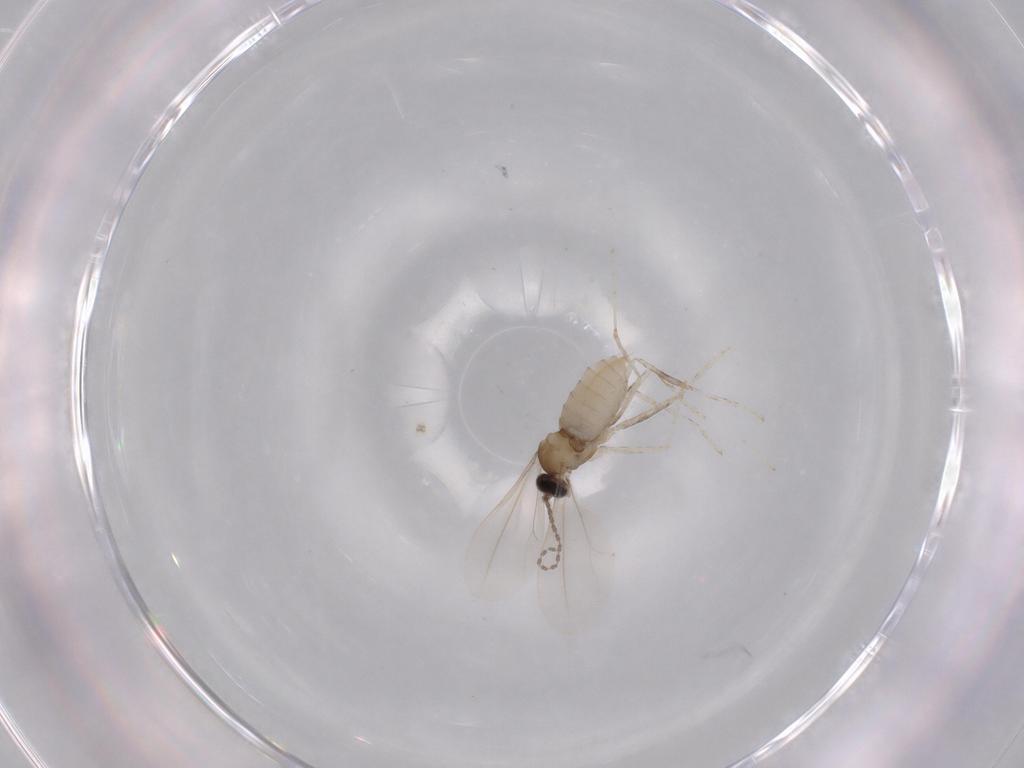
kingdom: Animalia
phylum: Arthropoda
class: Insecta
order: Diptera
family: Cecidomyiidae
